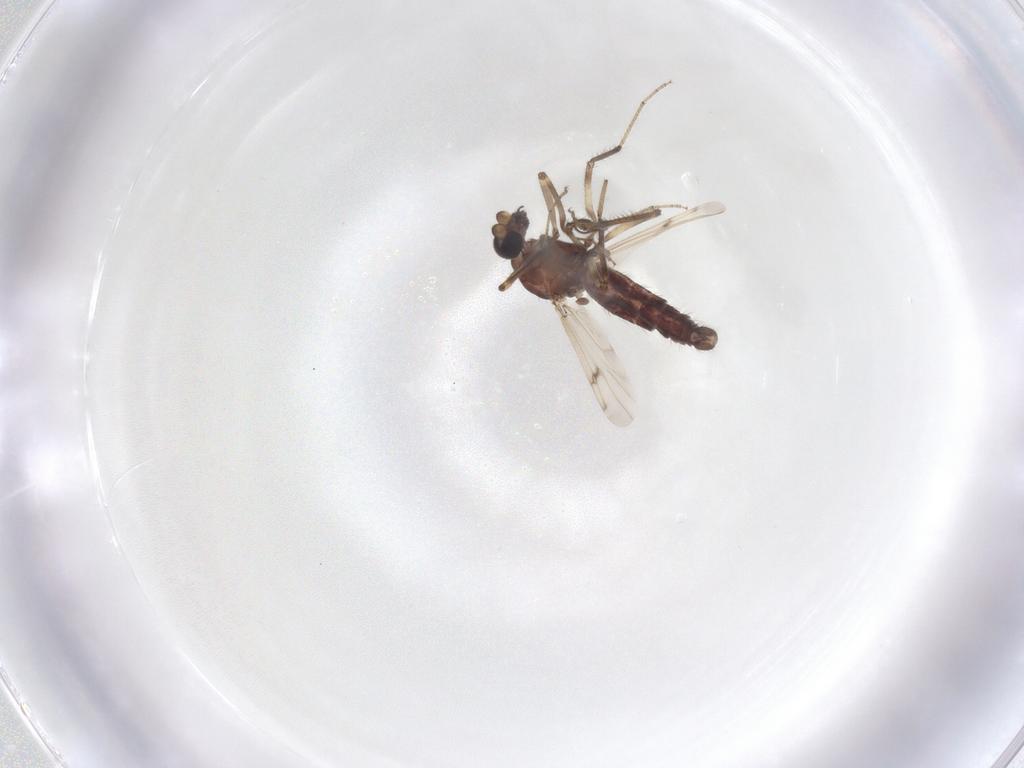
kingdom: Animalia
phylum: Arthropoda
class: Insecta
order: Diptera
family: Ceratopogonidae
